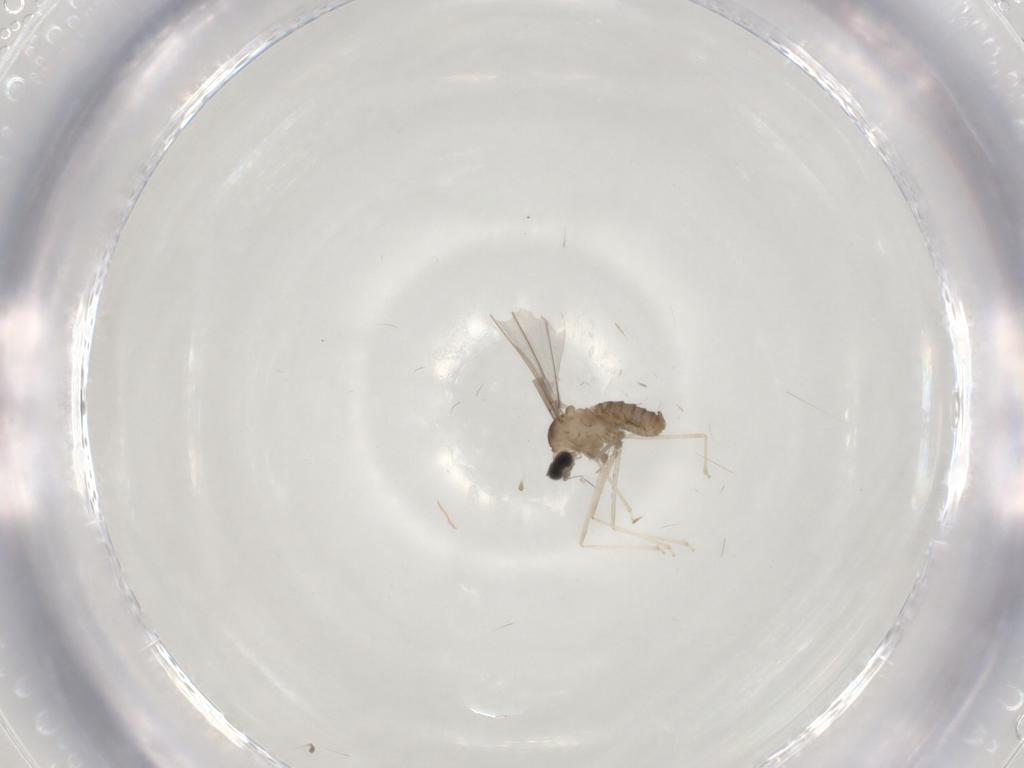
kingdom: Animalia
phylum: Arthropoda
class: Insecta
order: Diptera
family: Cecidomyiidae
